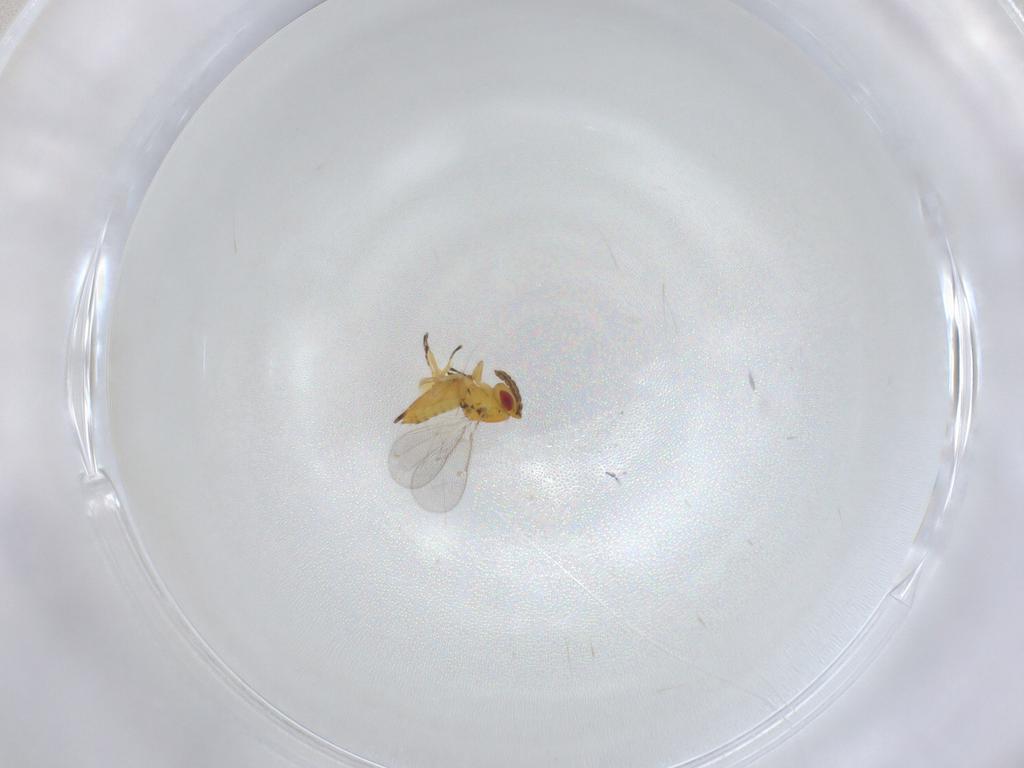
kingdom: Animalia
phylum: Arthropoda
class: Insecta
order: Hymenoptera
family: Eulophidae
